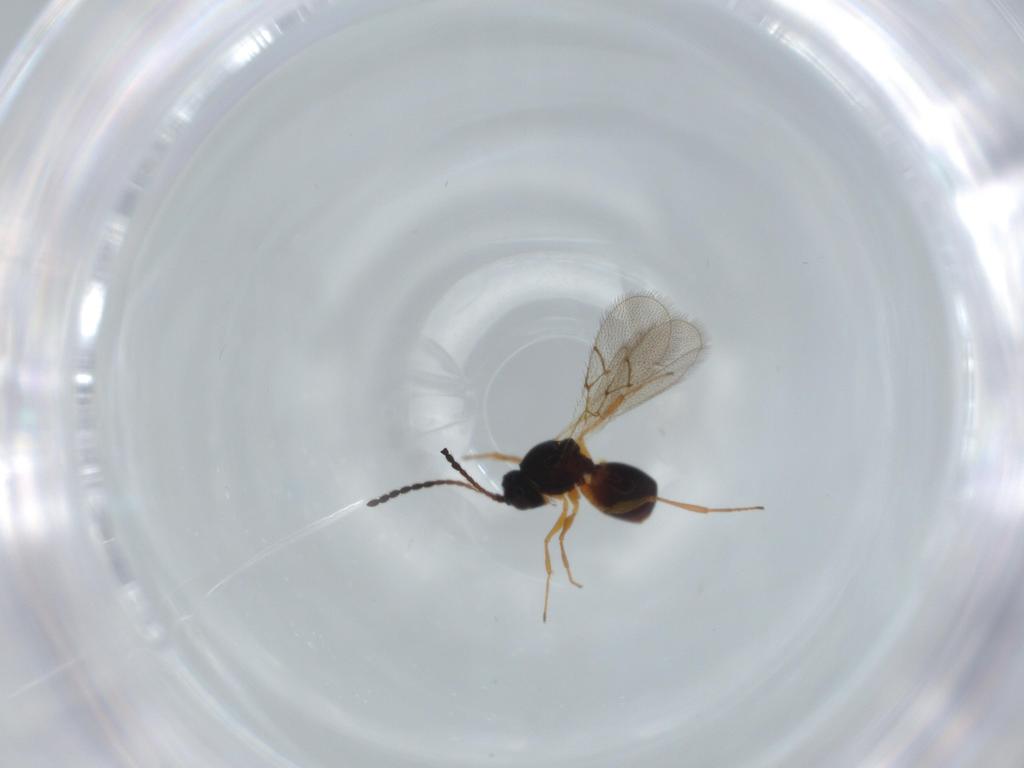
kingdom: Animalia
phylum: Arthropoda
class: Insecta
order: Hymenoptera
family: Figitidae
